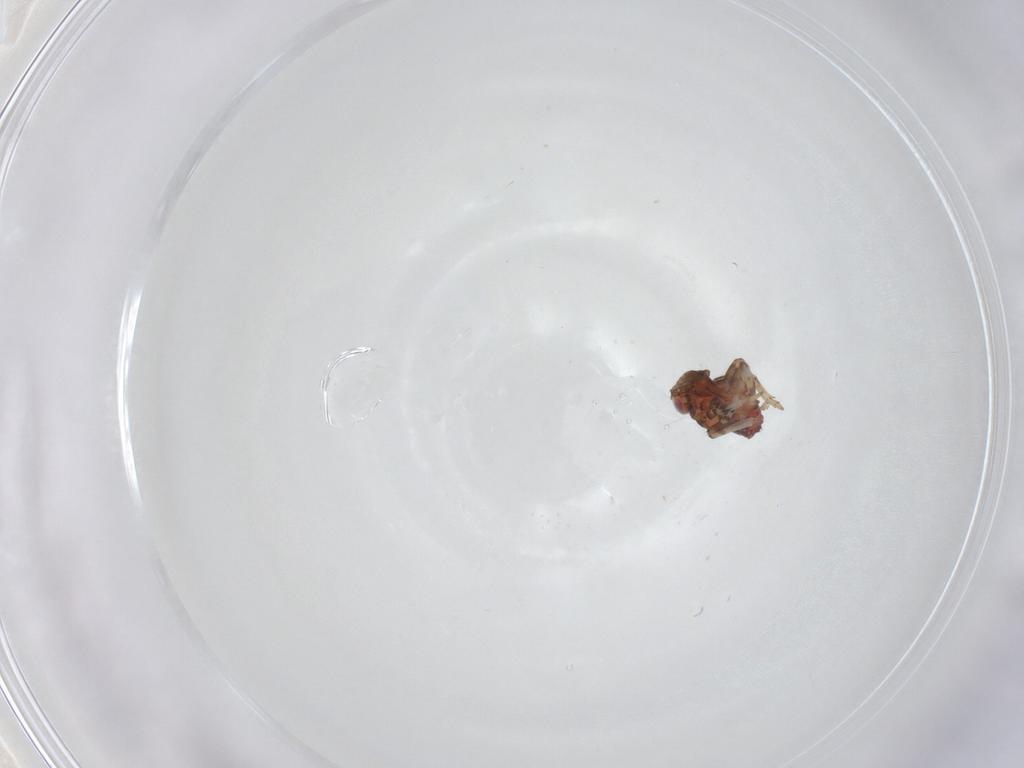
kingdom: Animalia
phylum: Arthropoda
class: Insecta
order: Hemiptera
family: Issidae
